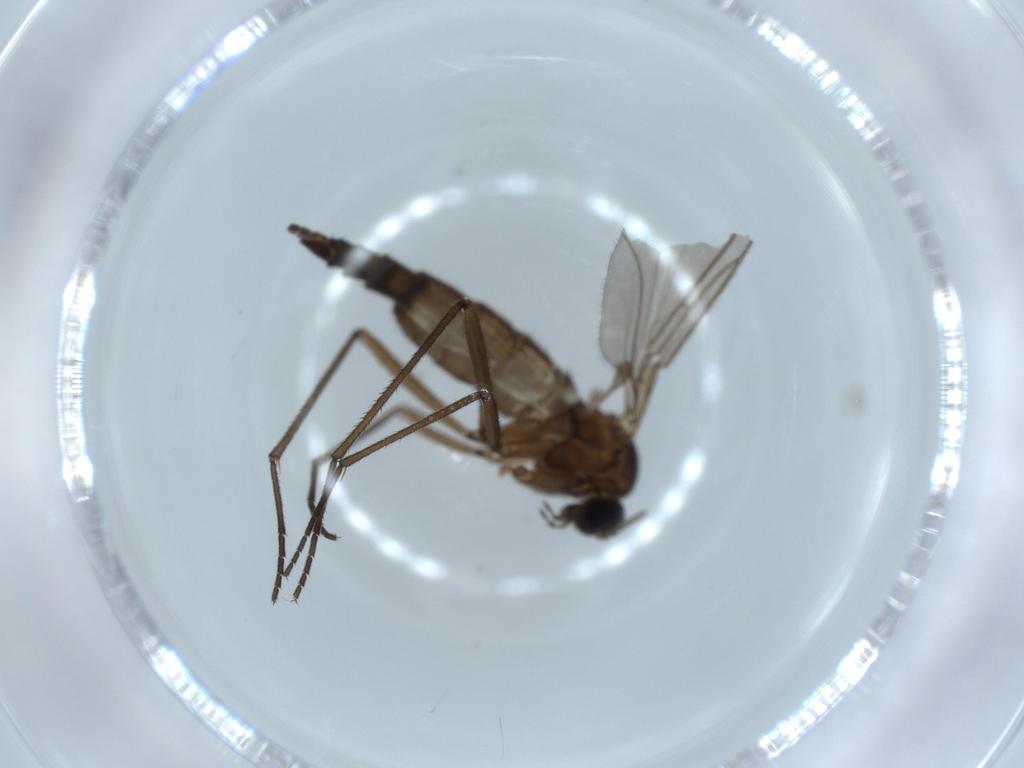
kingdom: Animalia
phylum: Arthropoda
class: Insecta
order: Diptera
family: Sciaridae
